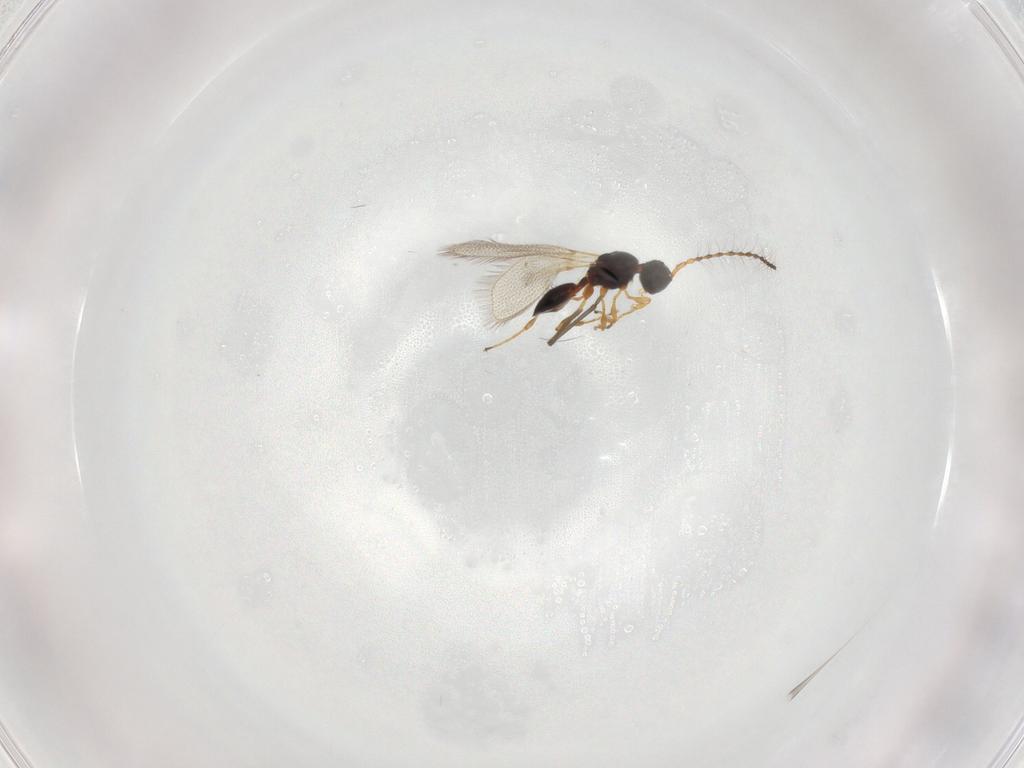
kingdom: Animalia
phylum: Arthropoda
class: Insecta
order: Hymenoptera
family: Diapriidae
